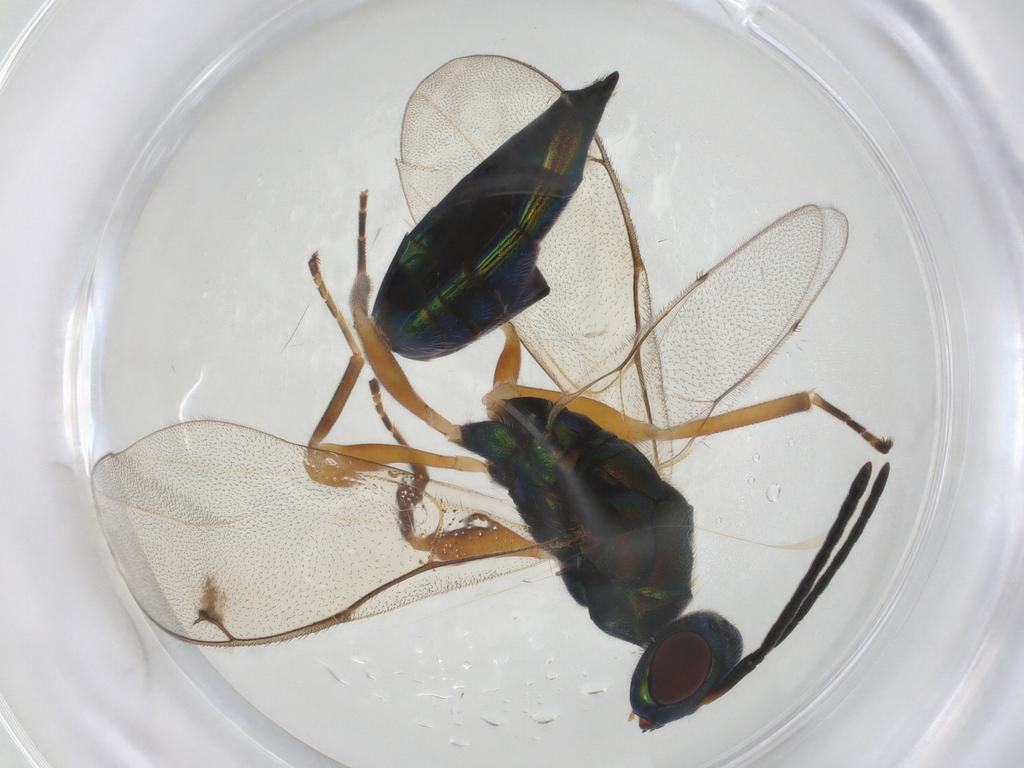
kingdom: Animalia
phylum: Arthropoda
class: Insecta
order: Hymenoptera
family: Pteromalidae
